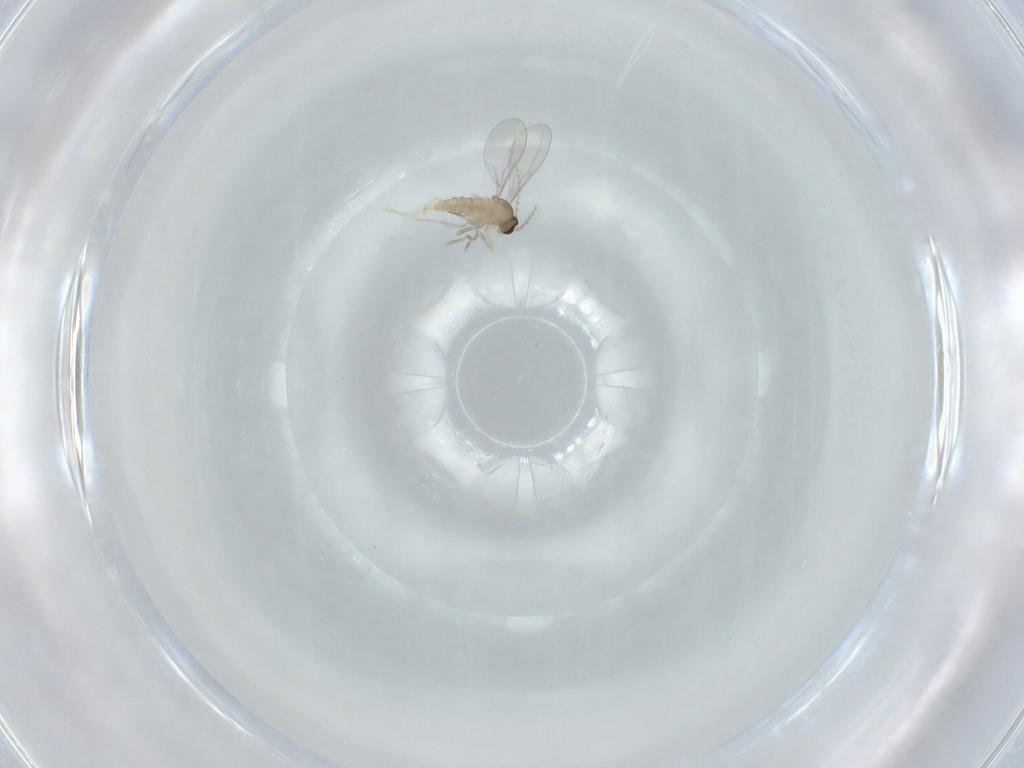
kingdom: Animalia
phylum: Arthropoda
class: Insecta
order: Diptera
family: Cecidomyiidae
